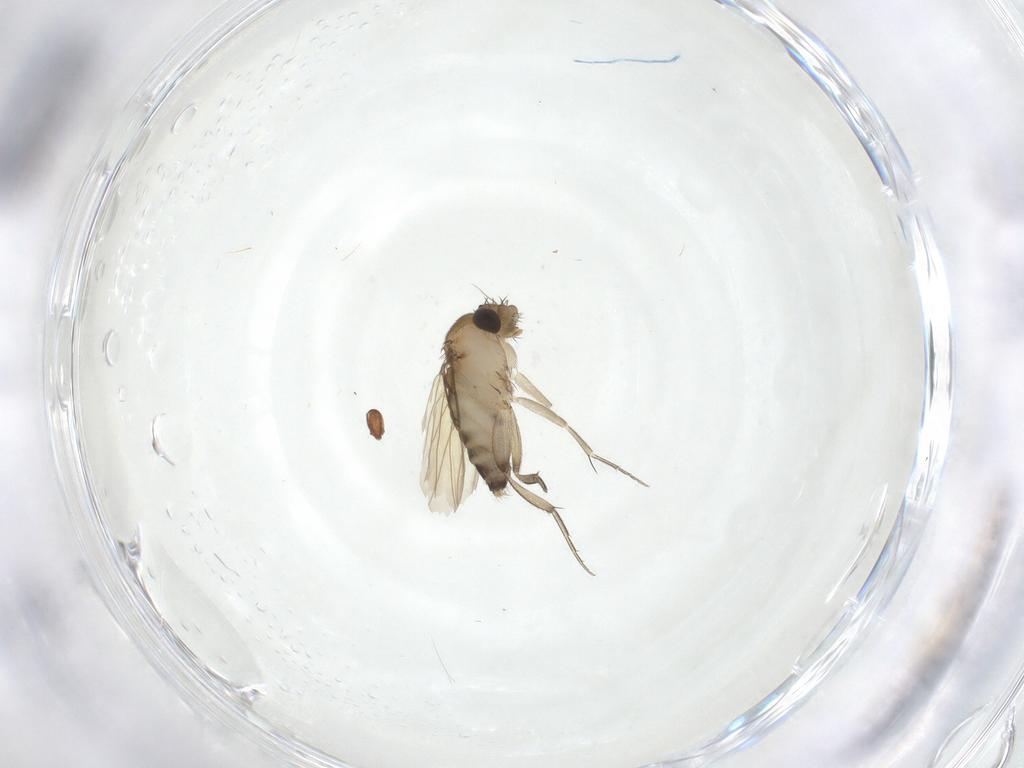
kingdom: Animalia
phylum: Arthropoda
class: Insecta
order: Diptera
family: Phoridae
